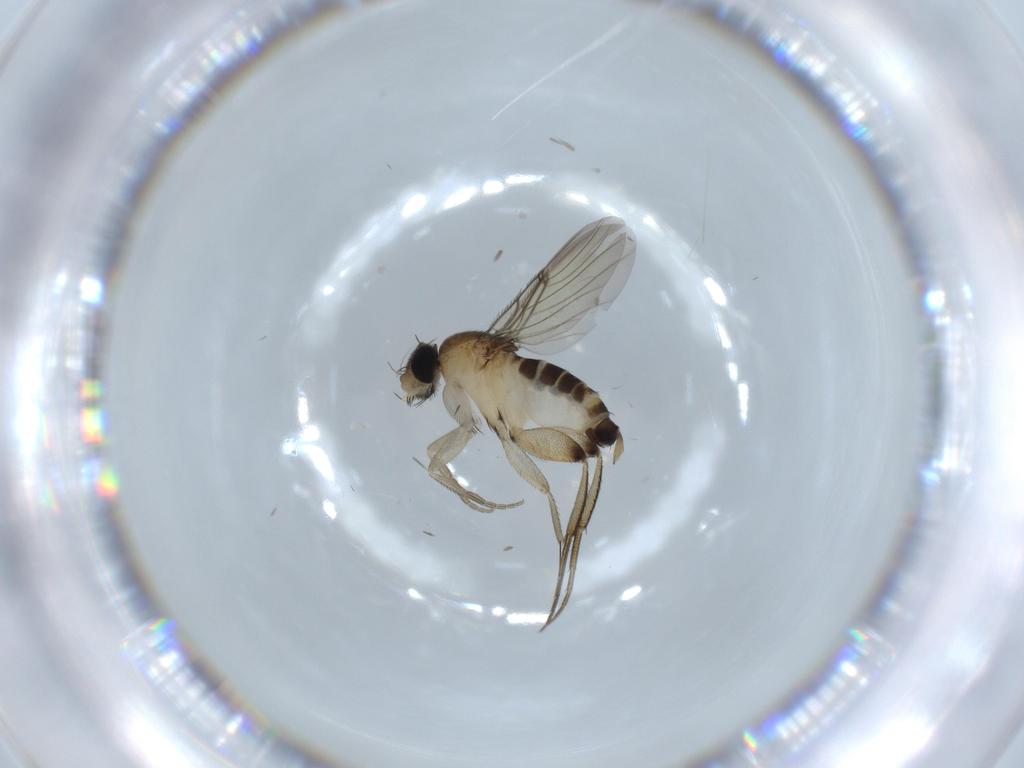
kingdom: Animalia
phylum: Arthropoda
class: Insecta
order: Diptera
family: Phoridae
